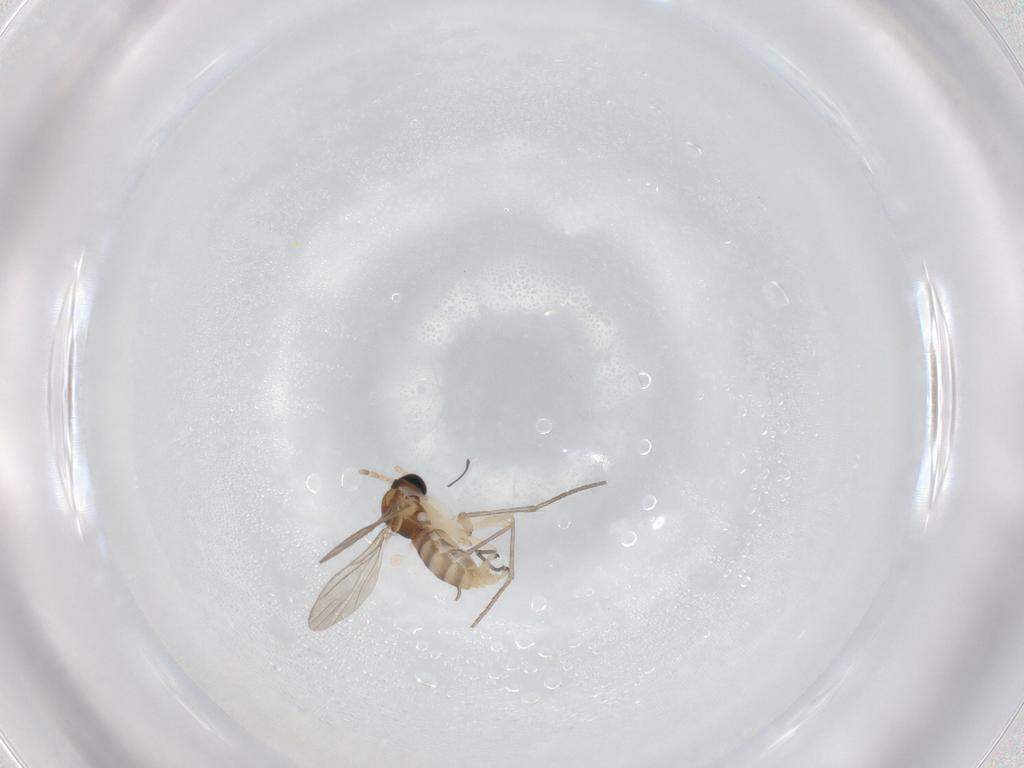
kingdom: Animalia
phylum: Arthropoda
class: Insecta
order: Diptera
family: Sciaridae
